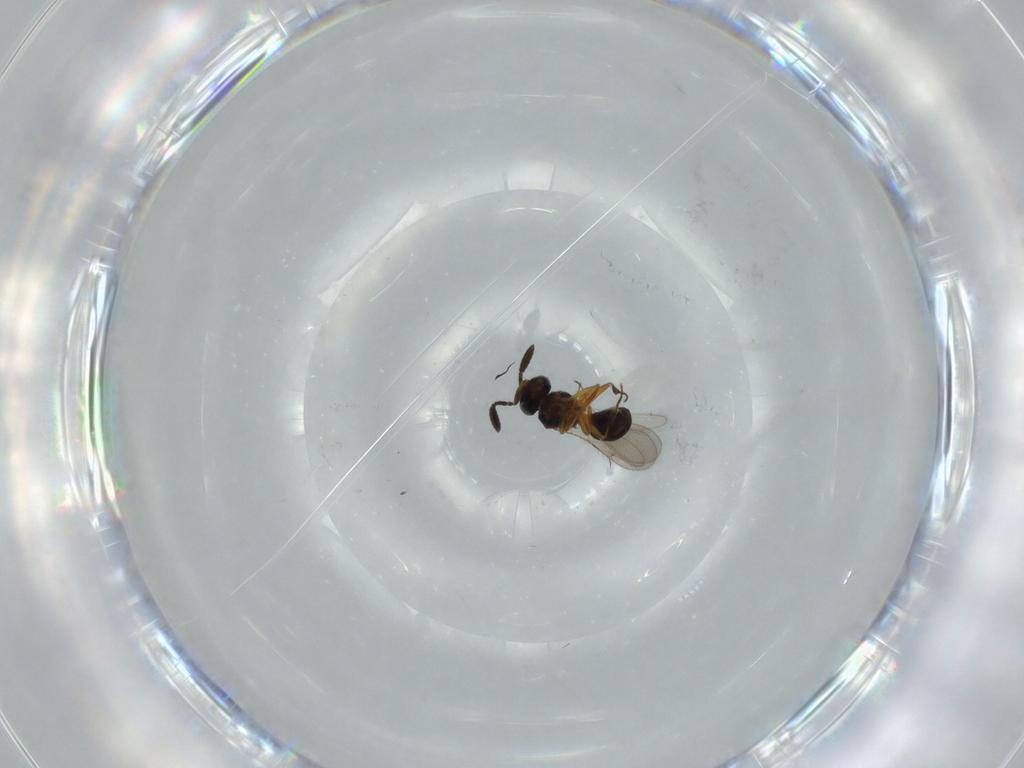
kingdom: Animalia
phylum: Arthropoda
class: Insecta
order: Hymenoptera
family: Scelionidae
